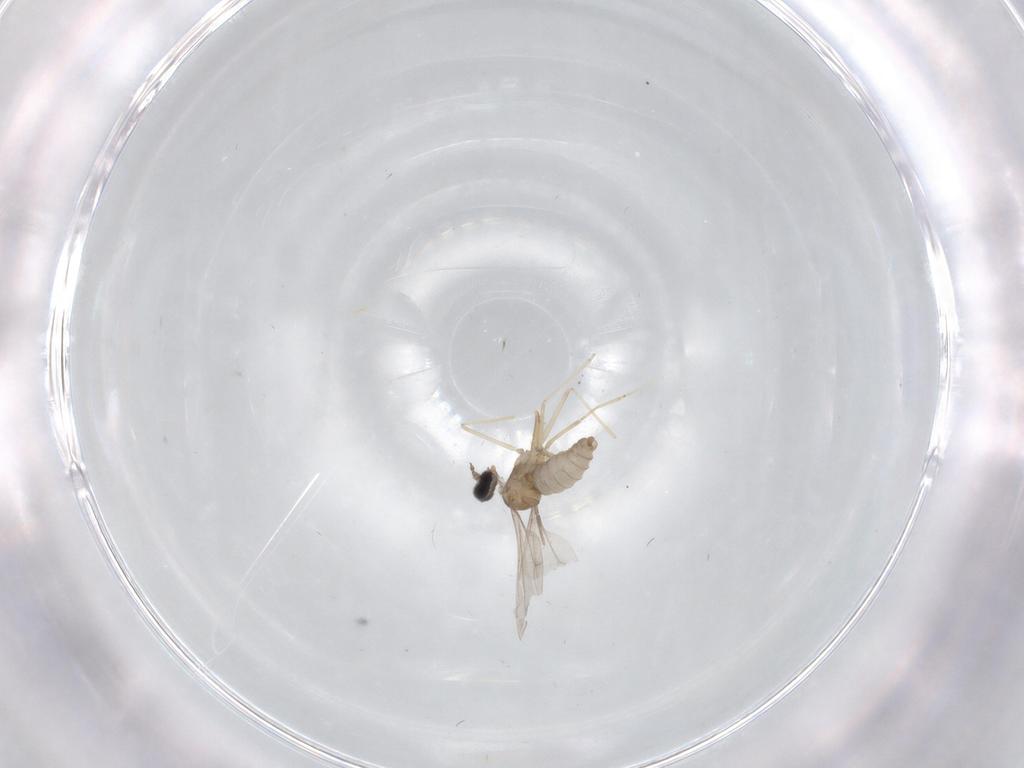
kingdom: Animalia
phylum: Arthropoda
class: Insecta
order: Diptera
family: Cecidomyiidae
